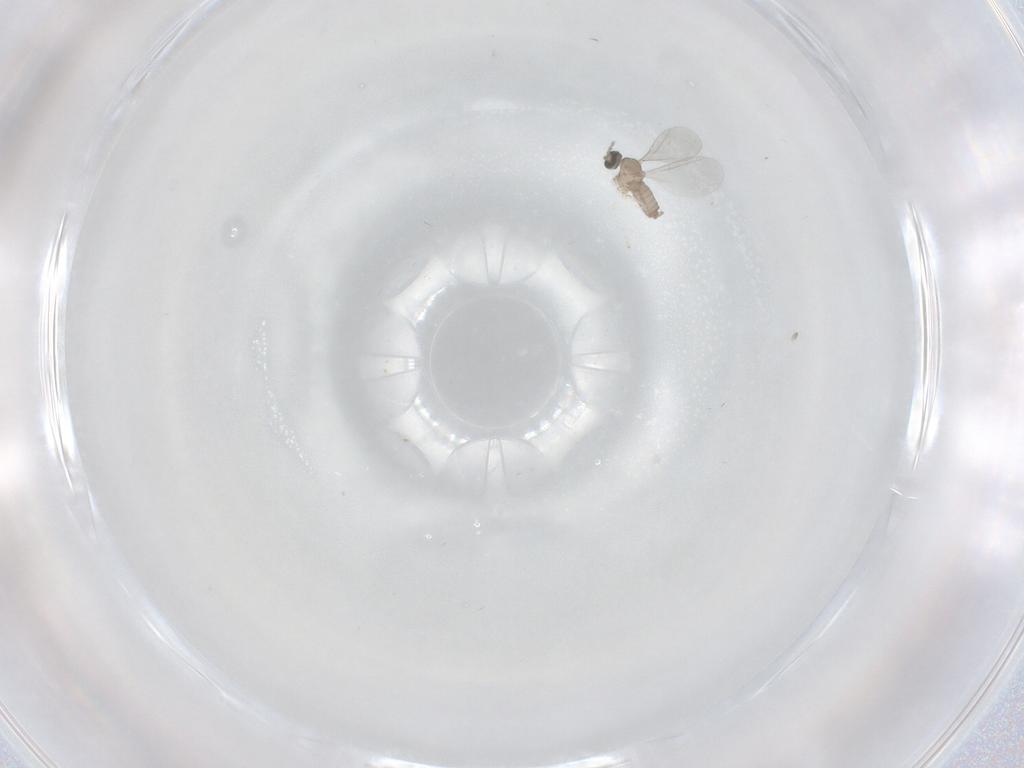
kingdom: Animalia
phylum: Arthropoda
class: Insecta
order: Diptera
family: Cecidomyiidae
